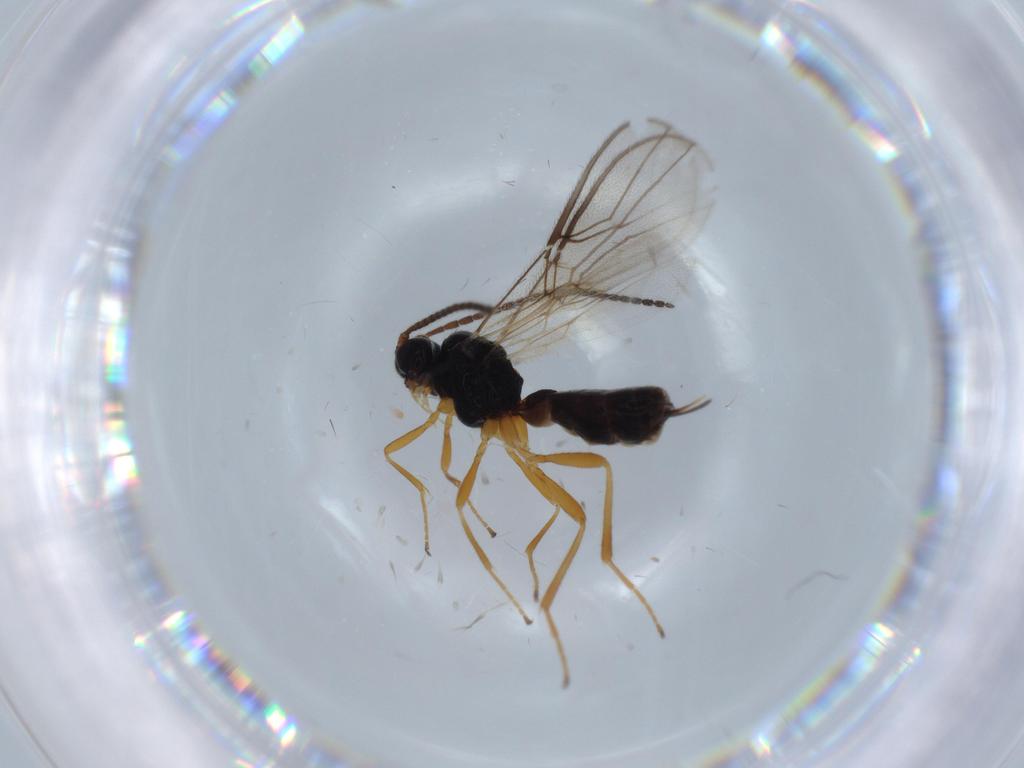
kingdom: Animalia
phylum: Arthropoda
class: Insecta
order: Hymenoptera
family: Braconidae
